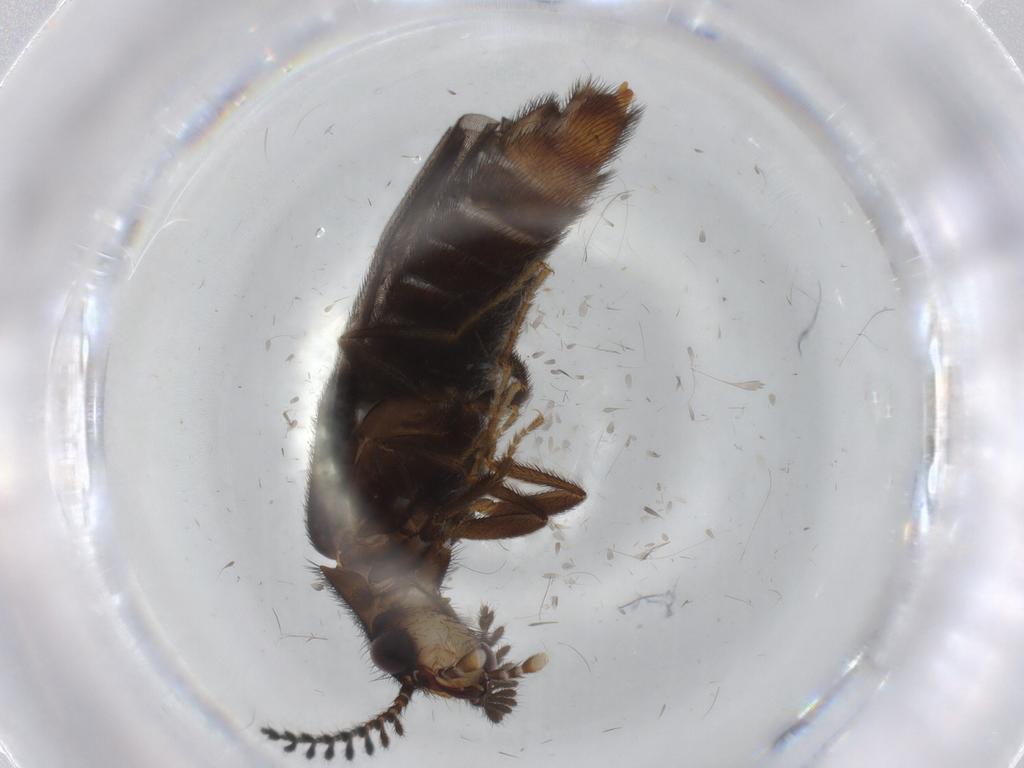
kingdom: Animalia
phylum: Arthropoda
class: Insecta
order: Coleoptera
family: Phengodidae
